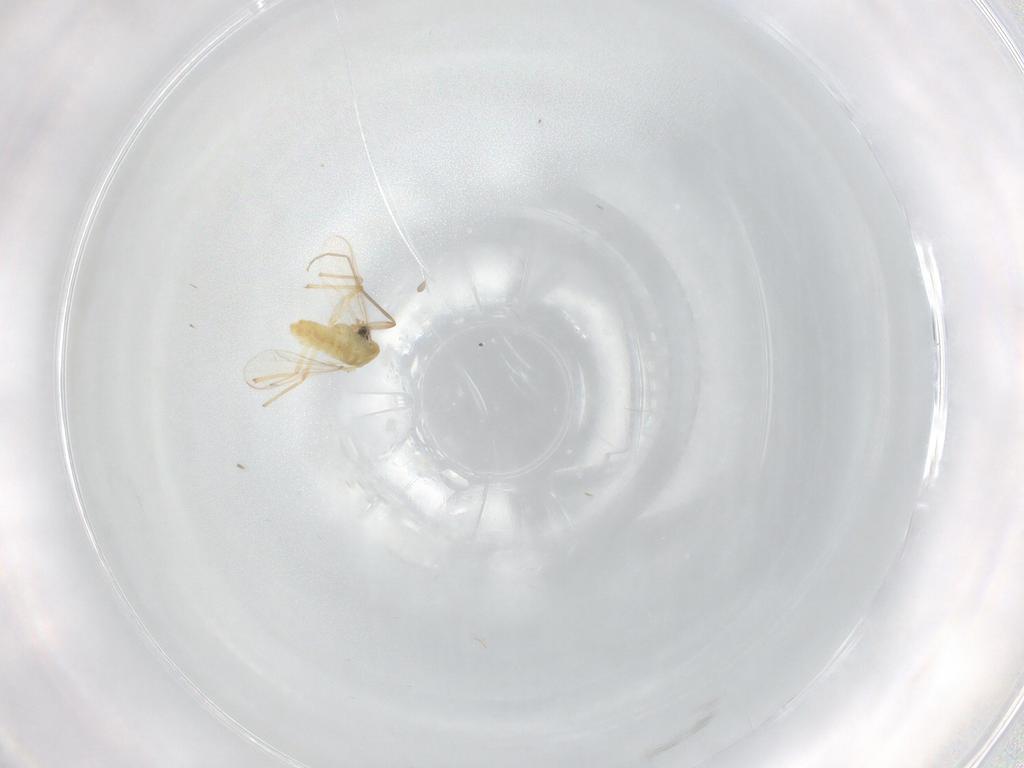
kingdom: Animalia
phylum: Arthropoda
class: Insecta
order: Diptera
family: Chironomidae
